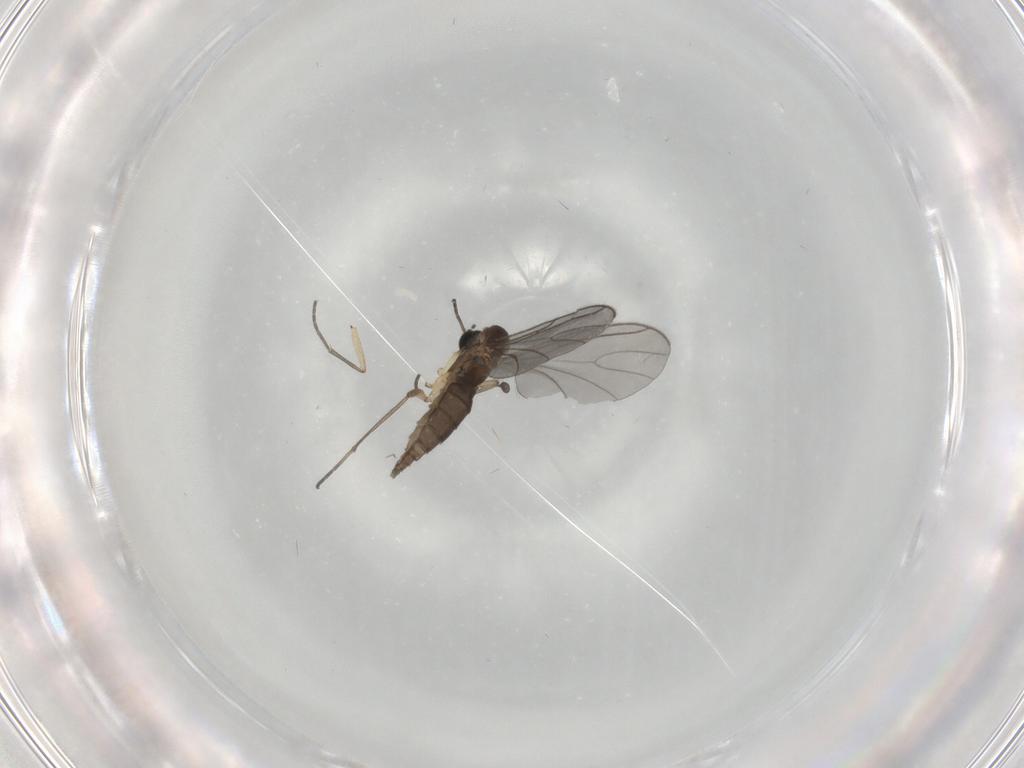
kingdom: Animalia
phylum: Arthropoda
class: Insecta
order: Diptera
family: Sciaridae
